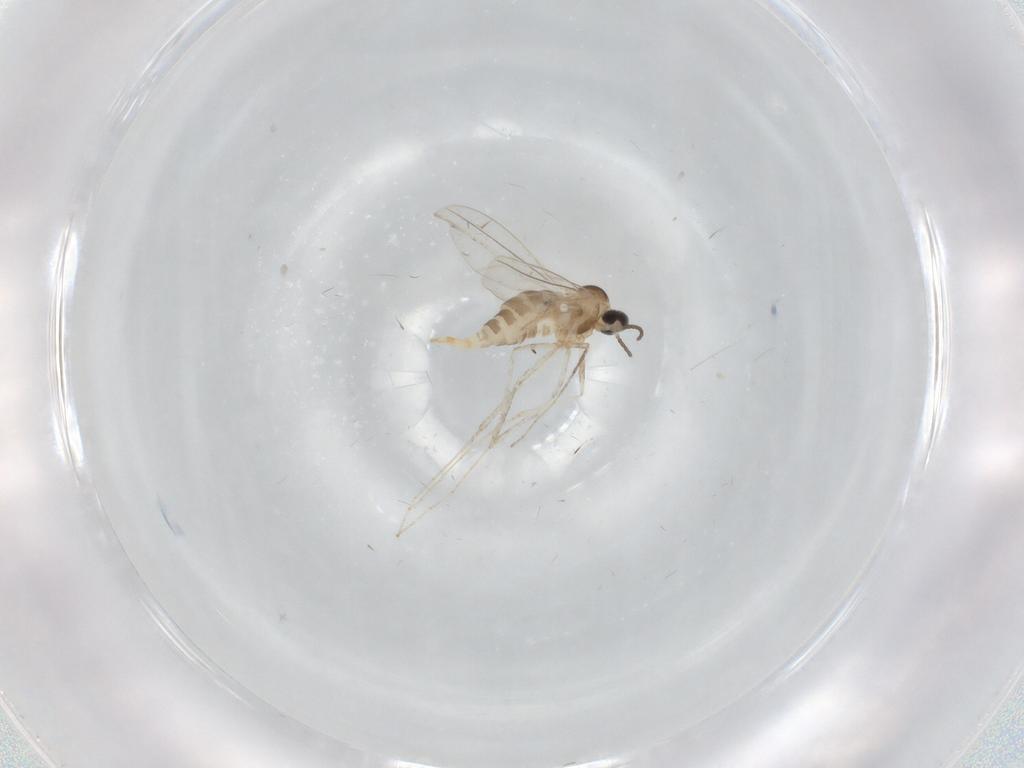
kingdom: Animalia
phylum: Arthropoda
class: Insecta
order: Diptera
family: Cecidomyiidae
